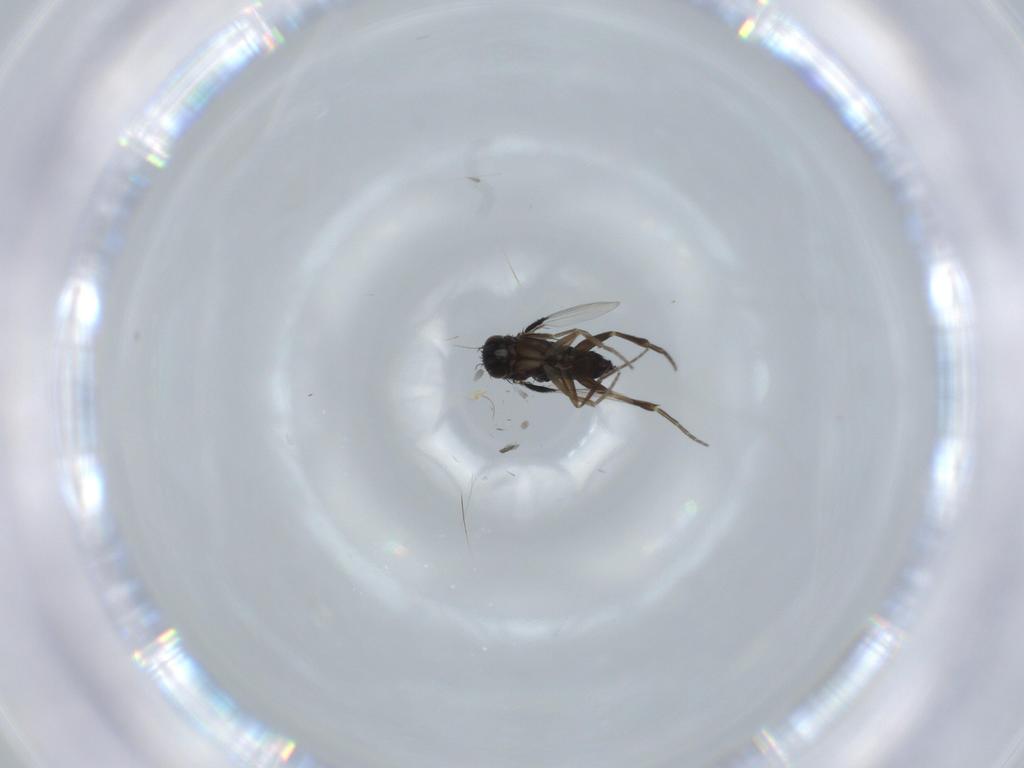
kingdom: Animalia
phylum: Arthropoda
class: Insecta
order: Diptera
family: Phoridae
